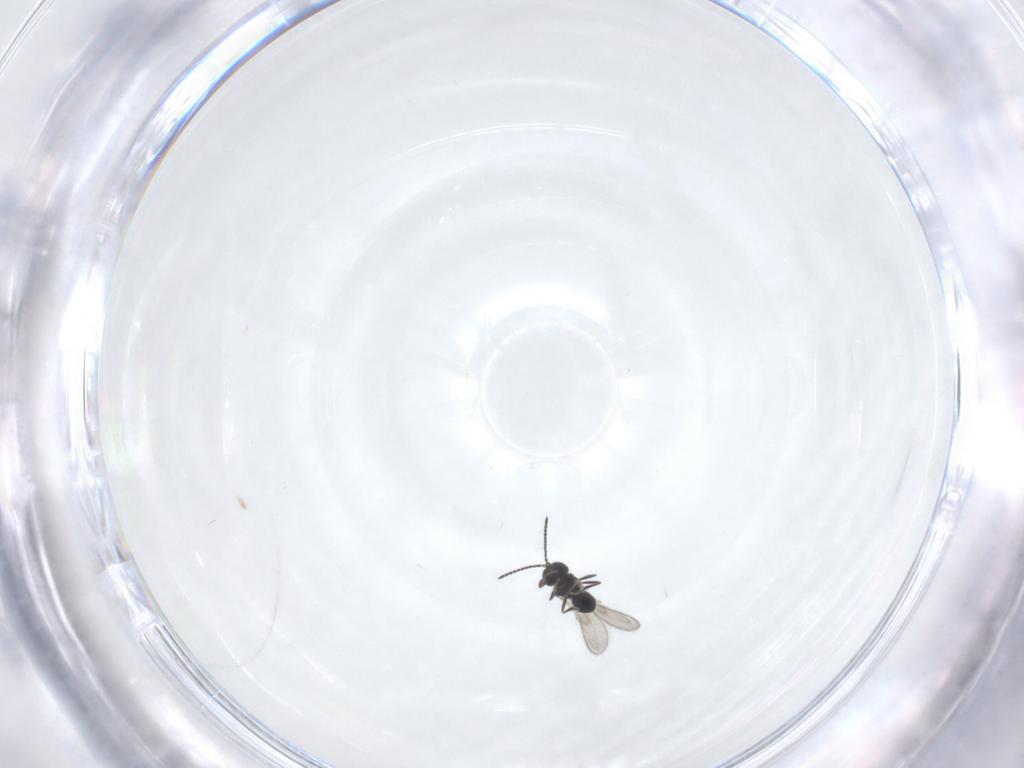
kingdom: Animalia
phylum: Arthropoda
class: Insecta
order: Hymenoptera
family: Scelionidae
